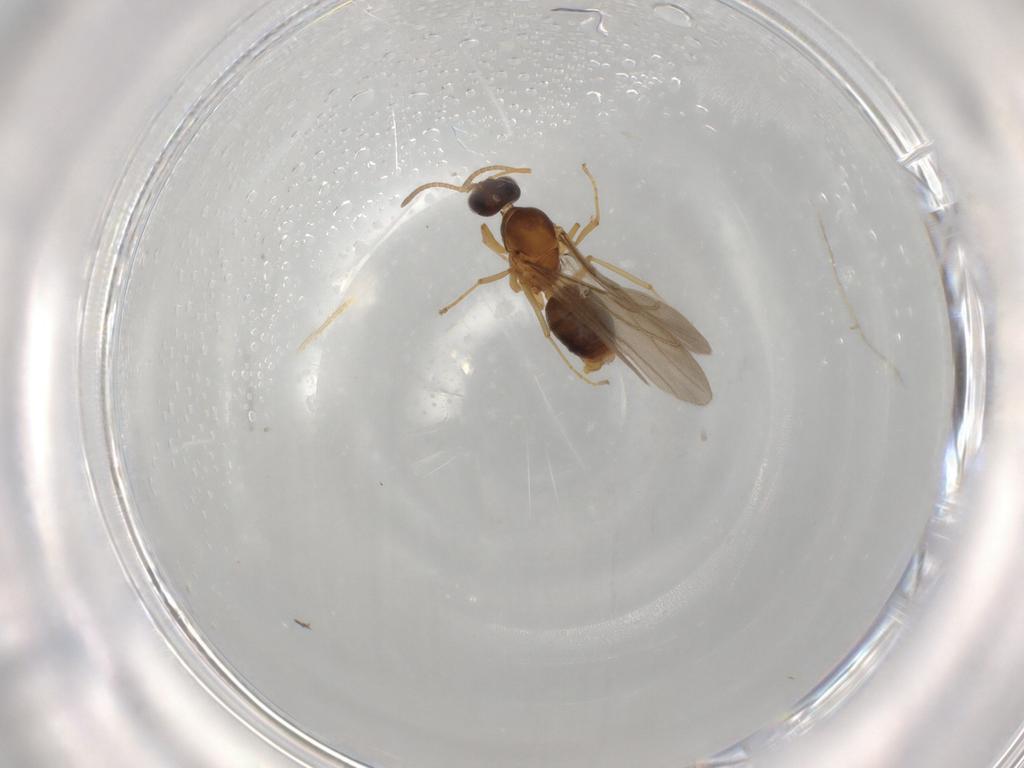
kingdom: Animalia
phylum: Arthropoda
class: Insecta
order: Hymenoptera
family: Formicidae
